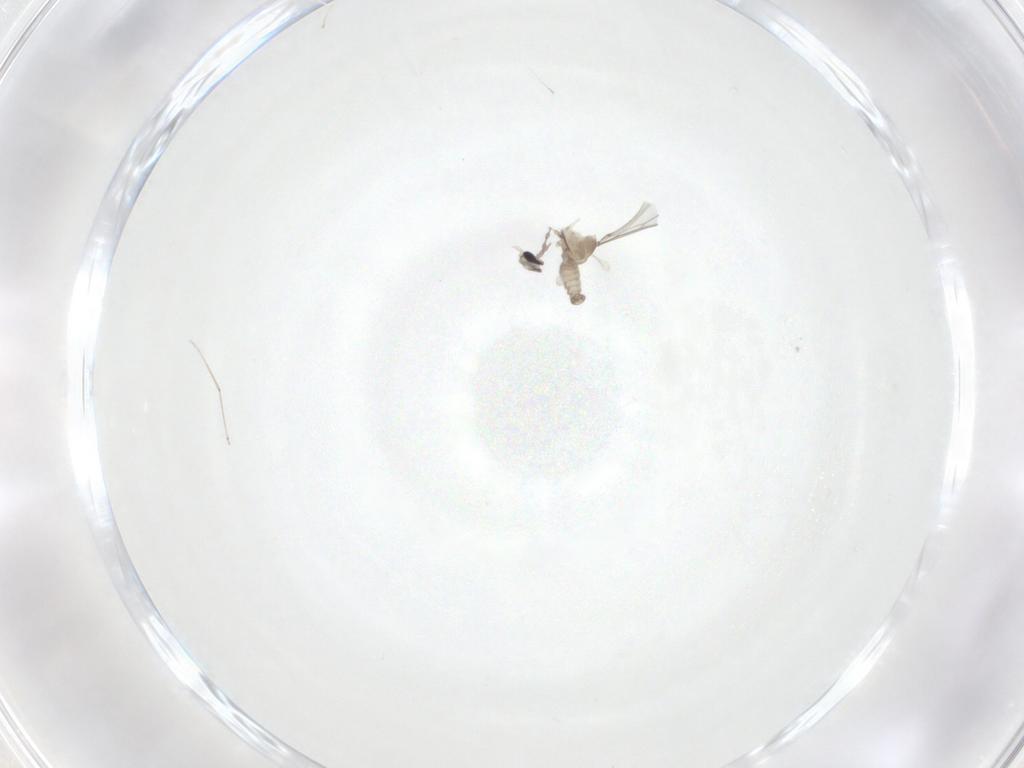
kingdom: Animalia
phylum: Arthropoda
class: Insecta
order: Diptera
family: Cecidomyiidae
